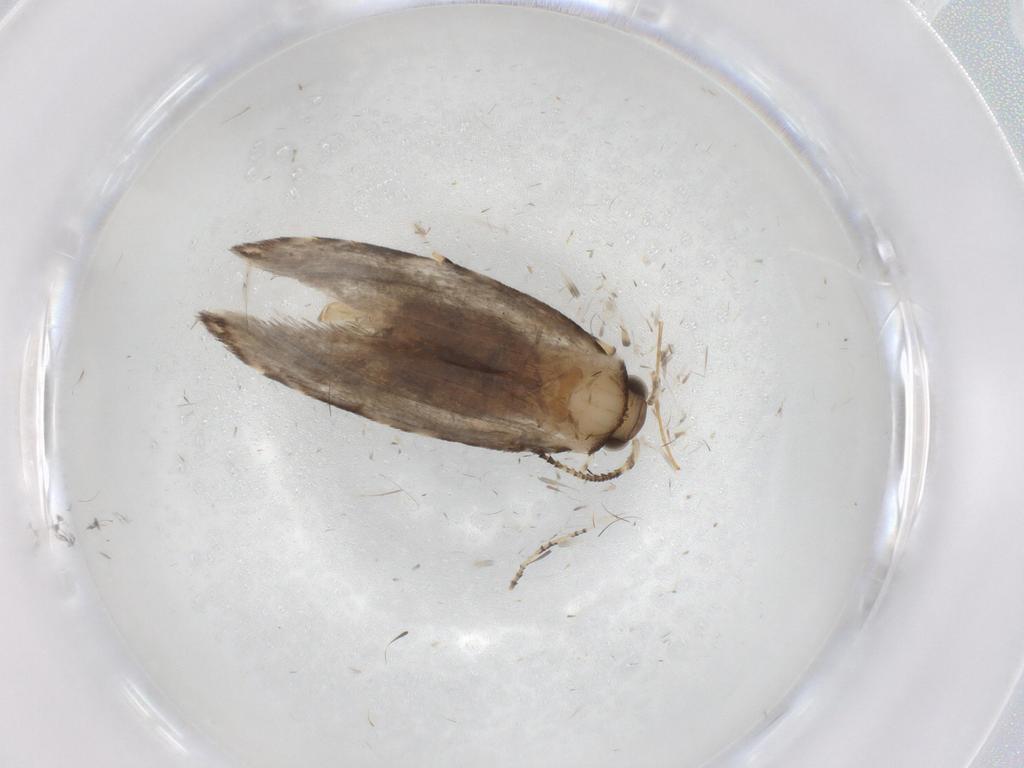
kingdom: Animalia
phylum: Arthropoda
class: Insecta
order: Lepidoptera
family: Tineidae
